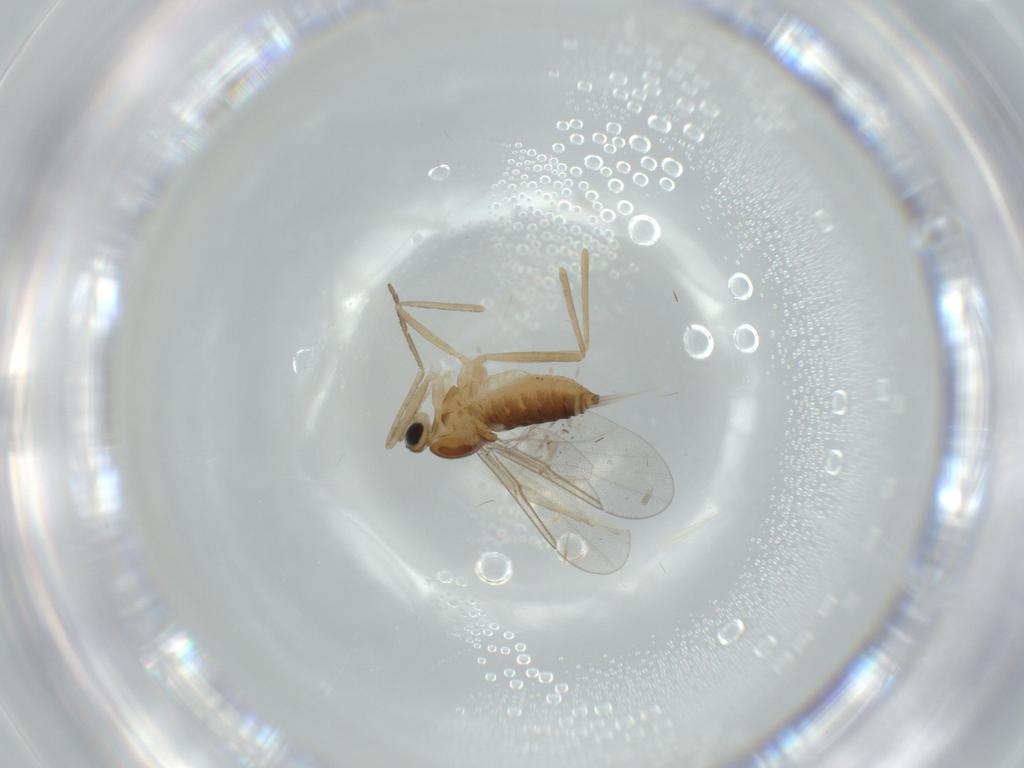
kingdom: Animalia
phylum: Arthropoda
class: Insecta
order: Diptera
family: Ceratopogonidae
